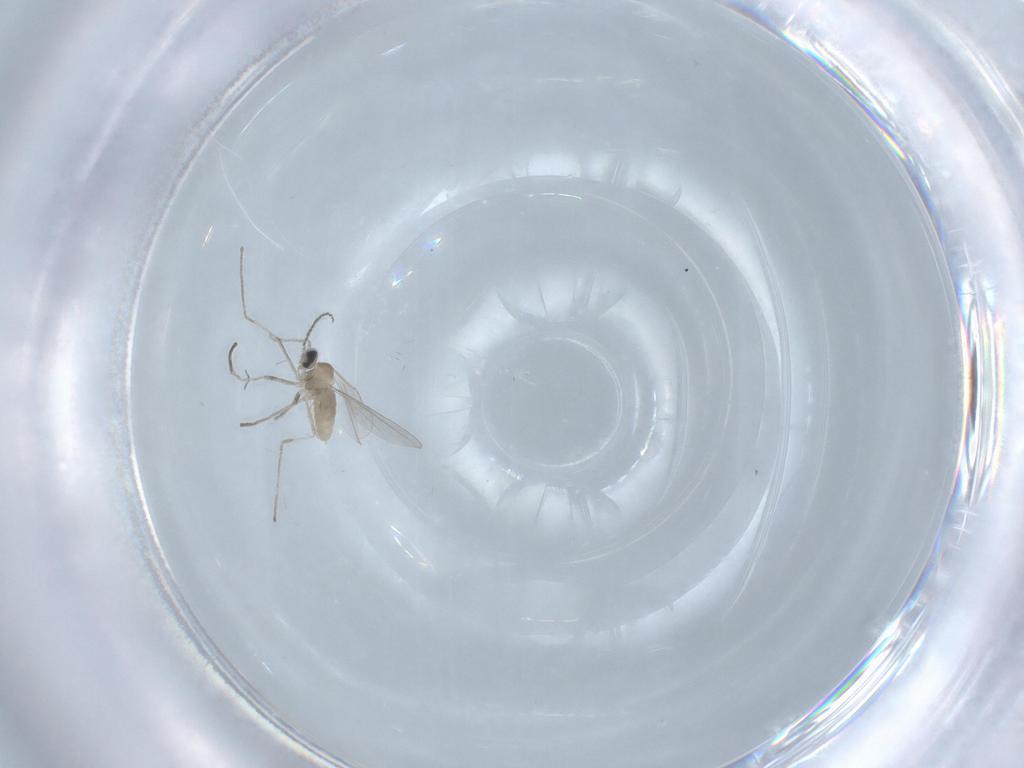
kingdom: Animalia
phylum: Arthropoda
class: Insecta
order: Diptera
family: Cecidomyiidae
